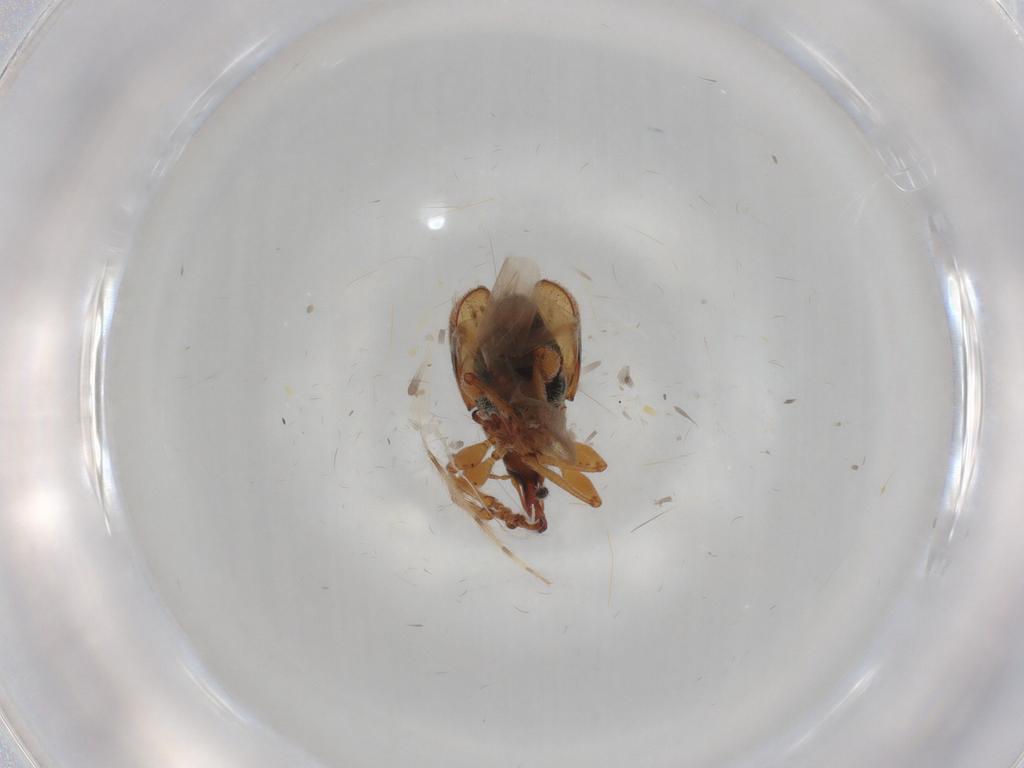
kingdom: Animalia
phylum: Arthropoda
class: Insecta
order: Coleoptera
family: Brentidae
